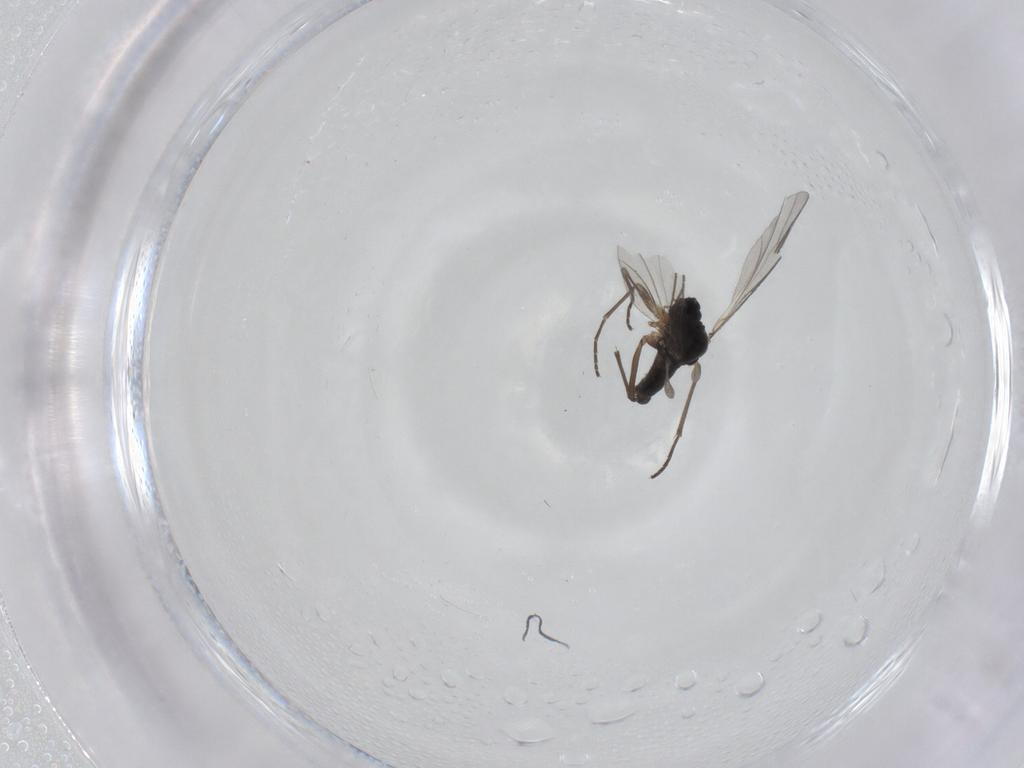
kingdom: Animalia
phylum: Arthropoda
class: Insecta
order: Diptera
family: Sciaridae
